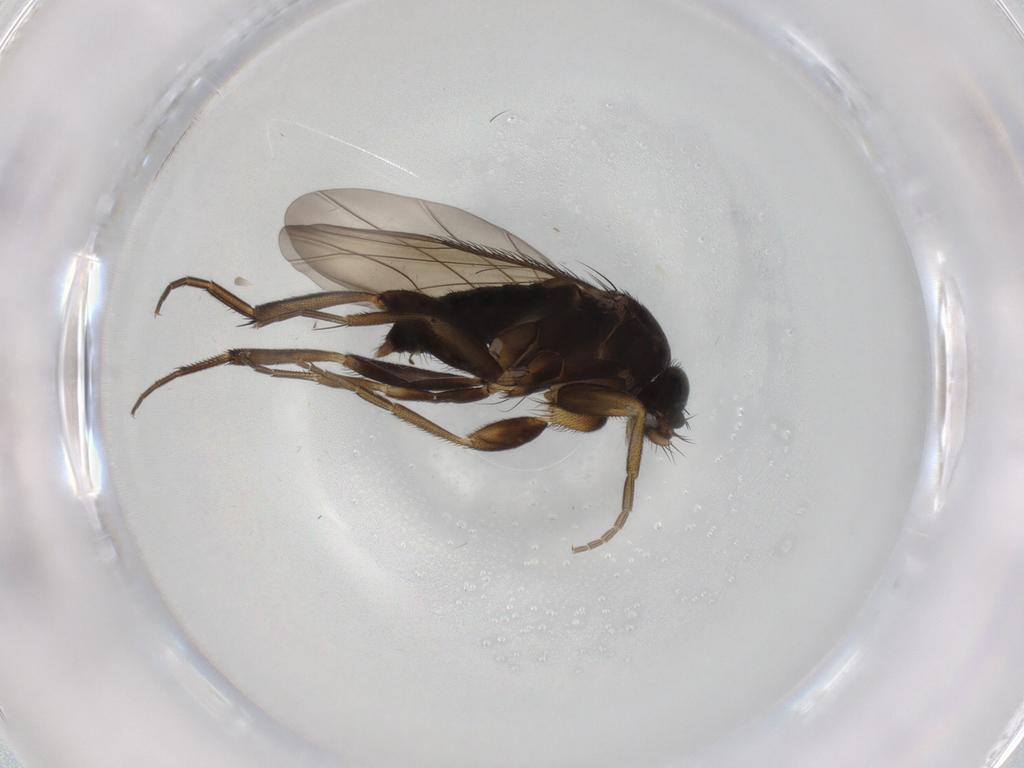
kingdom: Animalia
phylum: Arthropoda
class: Insecta
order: Diptera
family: Phoridae
